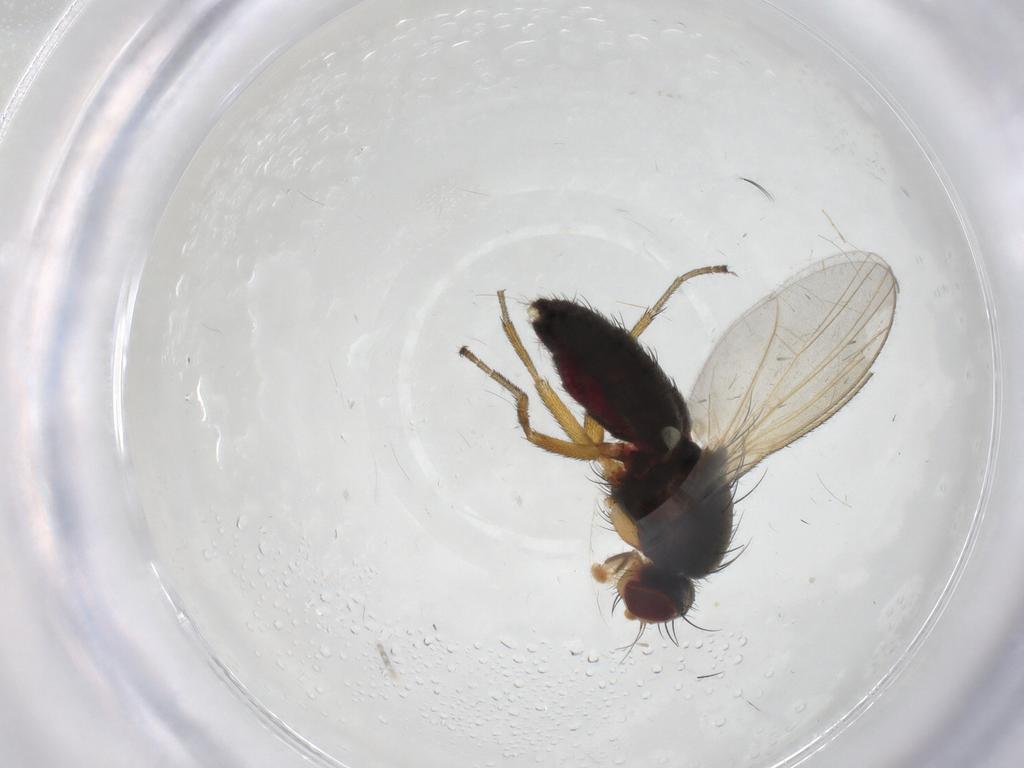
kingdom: Animalia
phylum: Arthropoda
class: Insecta
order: Diptera
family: Heleomyzidae
